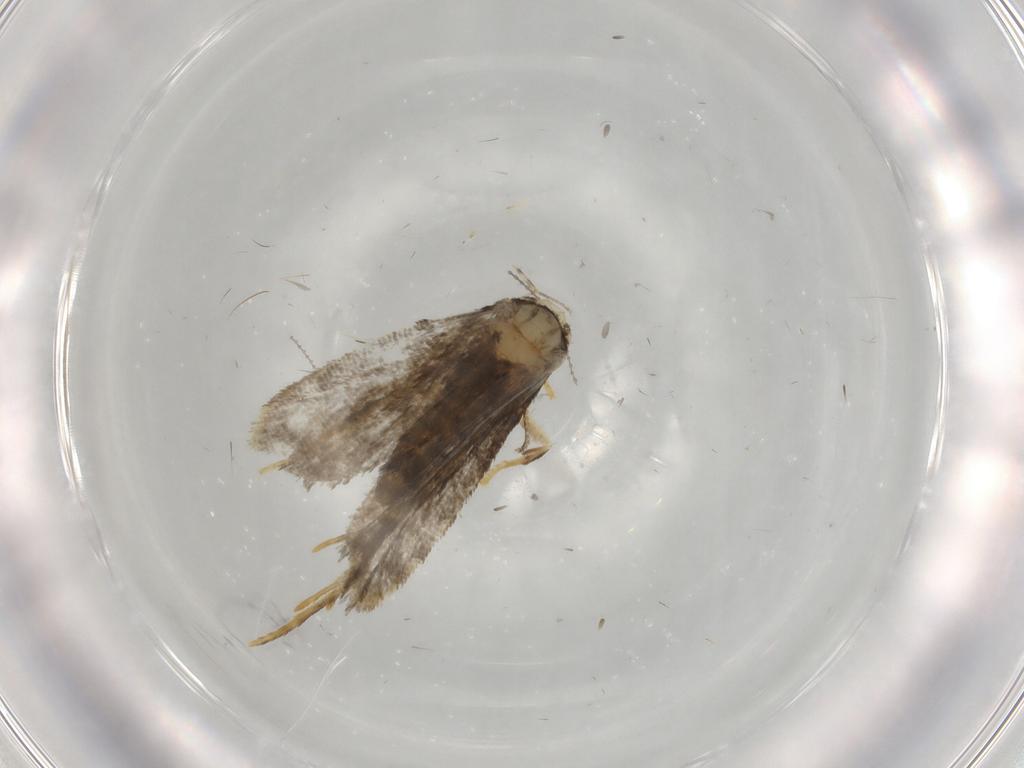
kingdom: Animalia
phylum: Arthropoda
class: Insecta
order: Lepidoptera
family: Psychidae
